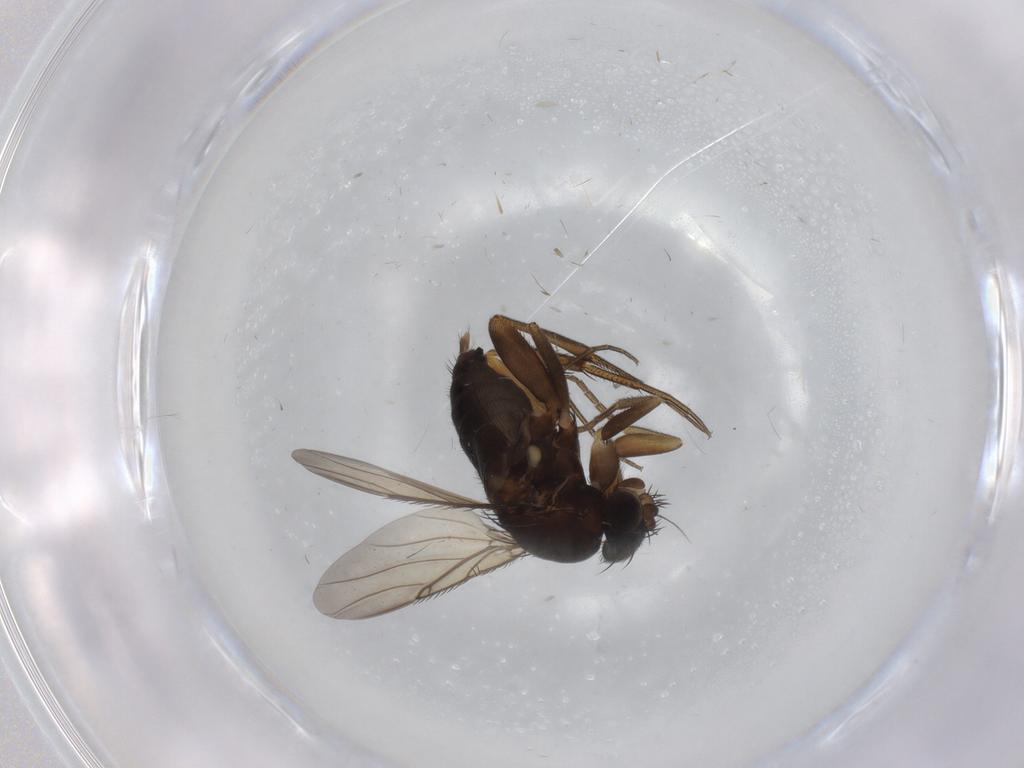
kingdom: Animalia
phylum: Arthropoda
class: Insecta
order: Diptera
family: Phoridae
